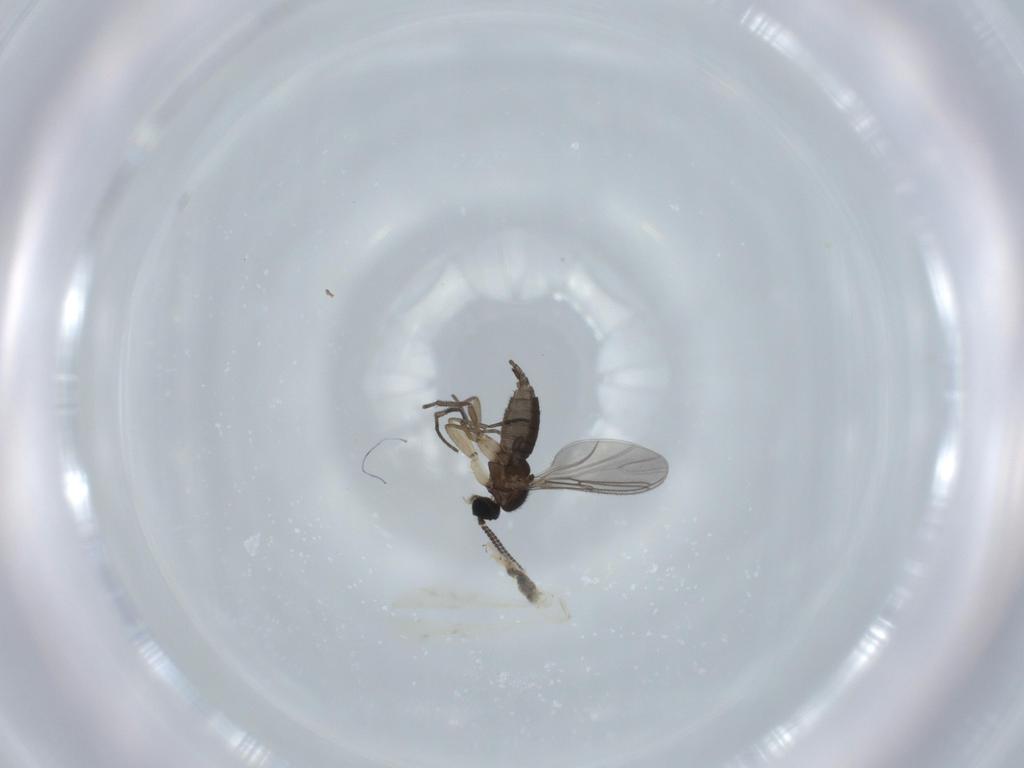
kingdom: Animalia
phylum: Arthropoda
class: Insecta
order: Diptera
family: Sciaridae
